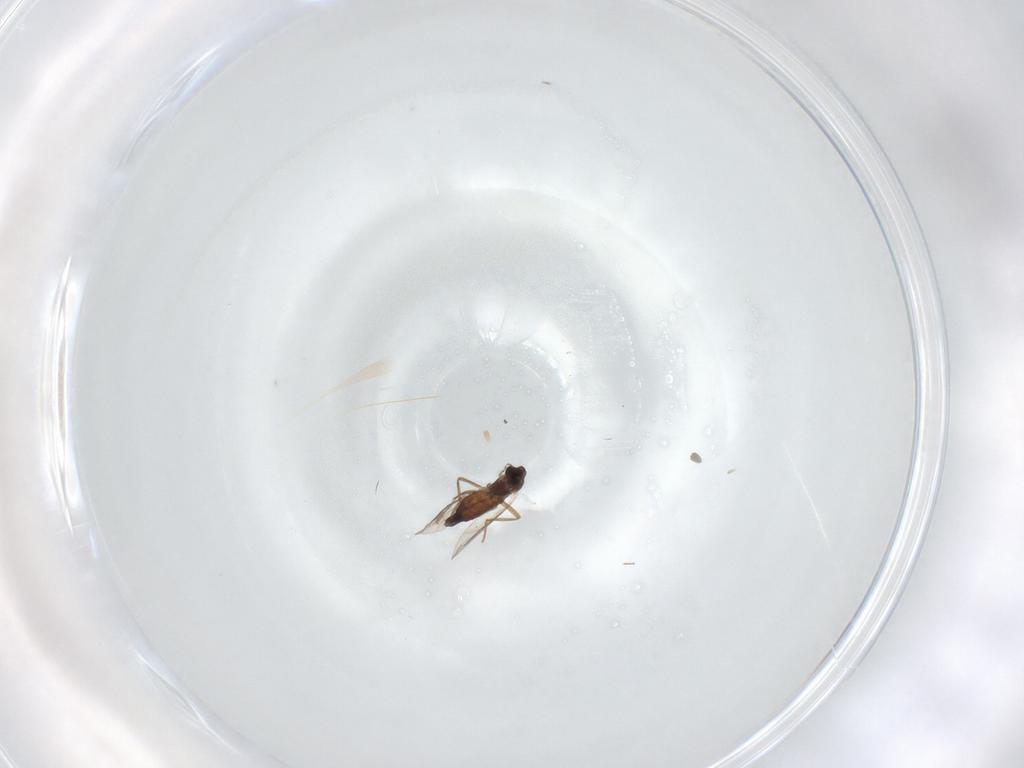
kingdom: Animalia
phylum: Arthropoda
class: Insecta
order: Diptera
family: Chironomidae
